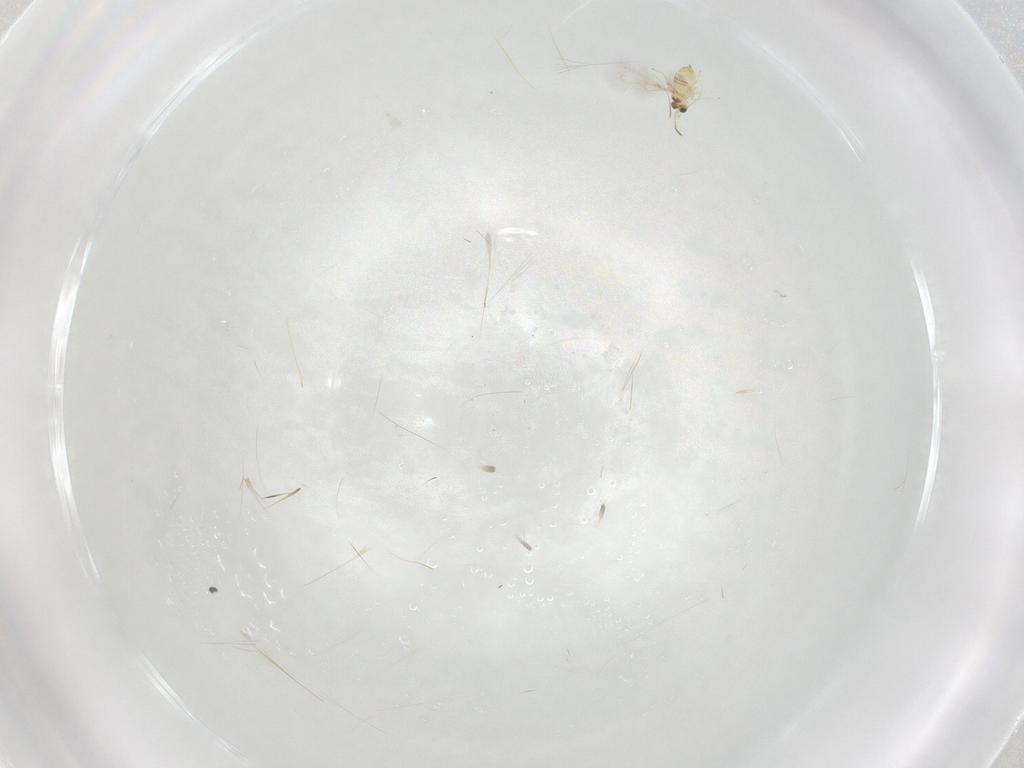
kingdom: Animalia
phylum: Arthropoda
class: Insecta
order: Hymenoptera
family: Mymaridae
